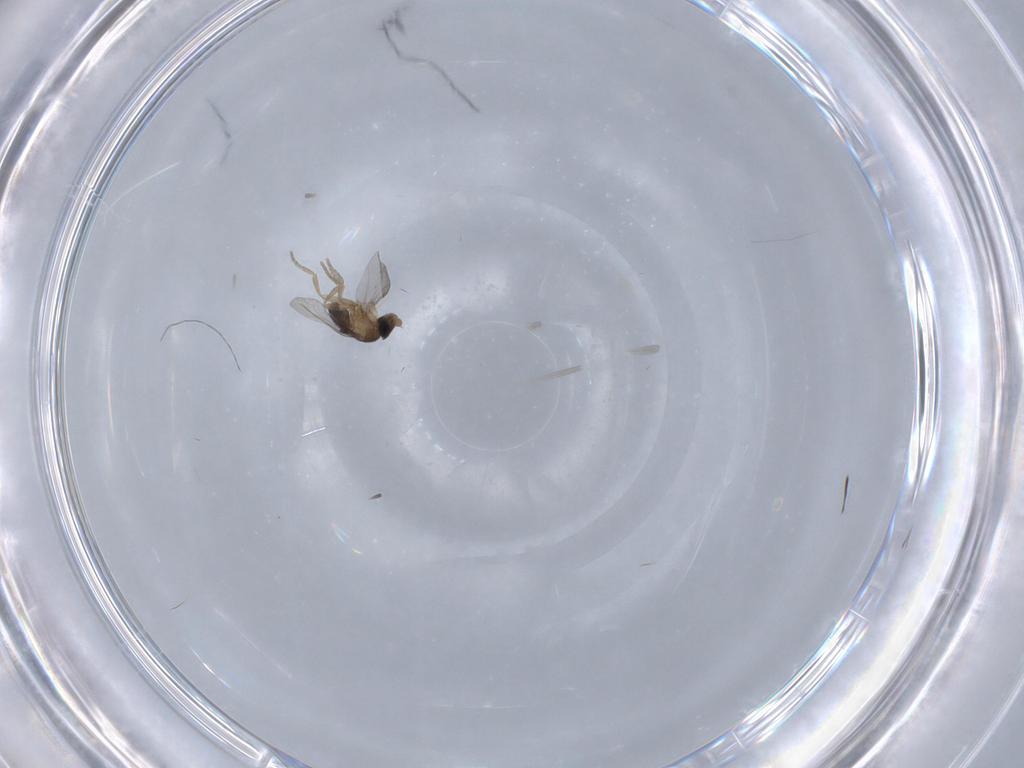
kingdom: Animalia
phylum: Arthropoda
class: Insecta
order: Diptera
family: Phoridae
